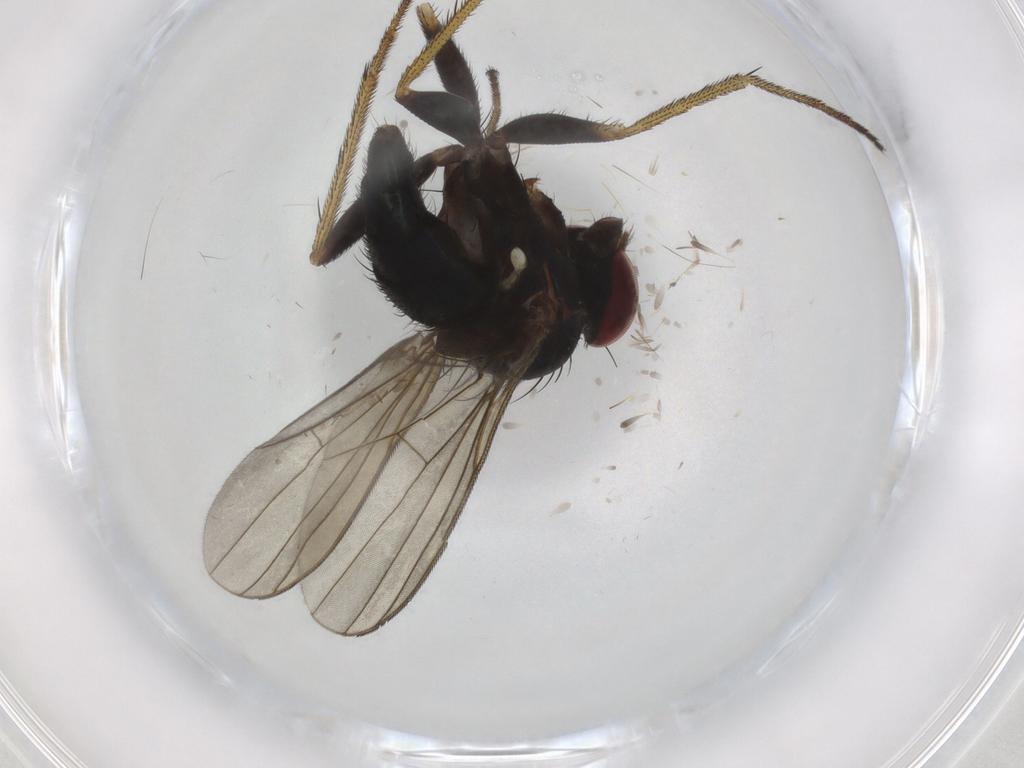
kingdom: Animalia
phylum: Arthropoda
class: Insecta
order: Diptera
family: Dolichopodidae
